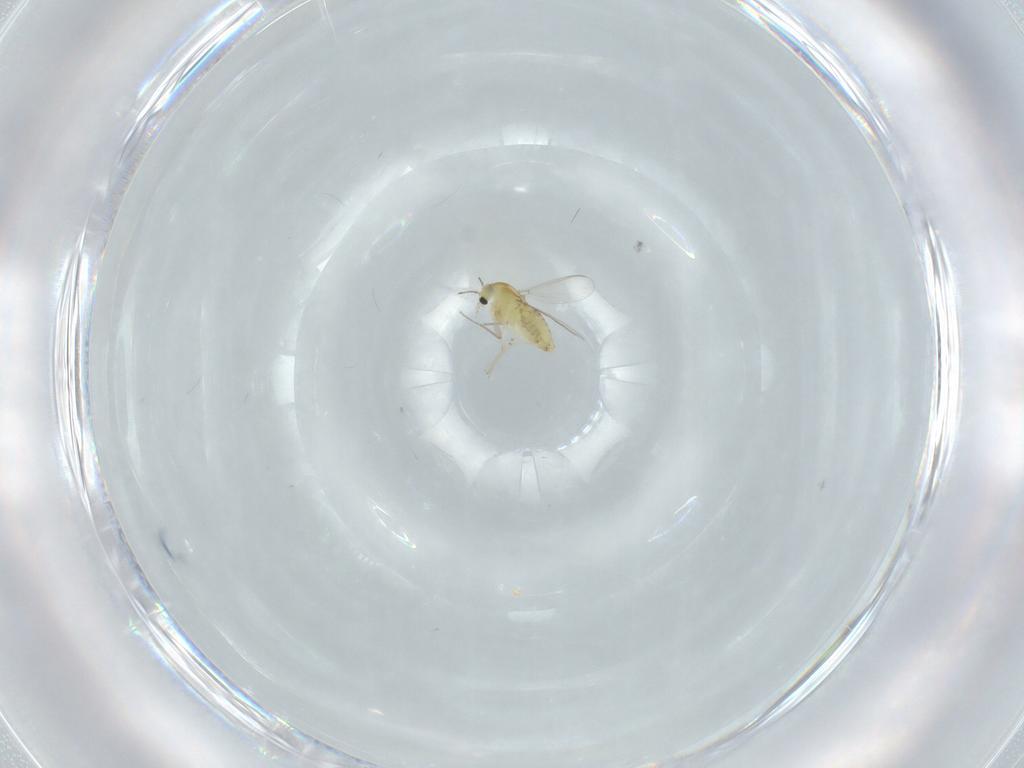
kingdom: Animalia
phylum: Arthropoda
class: Insecta
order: Diptera
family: Chironomidae
